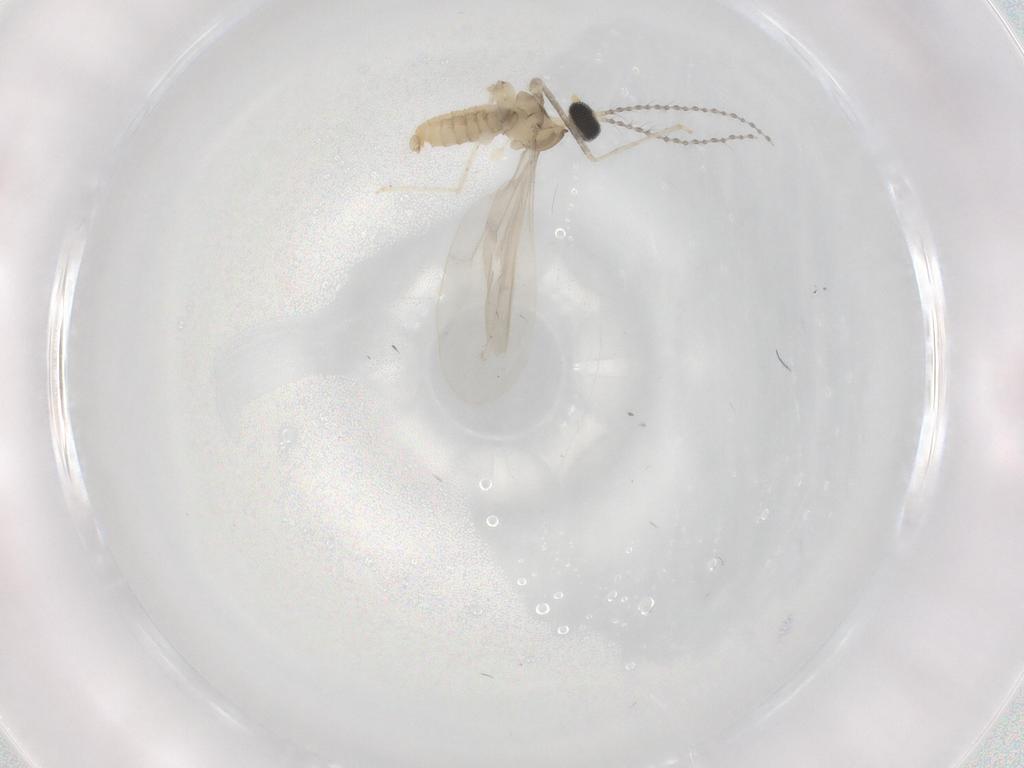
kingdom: Animalia
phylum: Arthropoda
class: Insecta
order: Diptera
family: Cecidomyiidae
